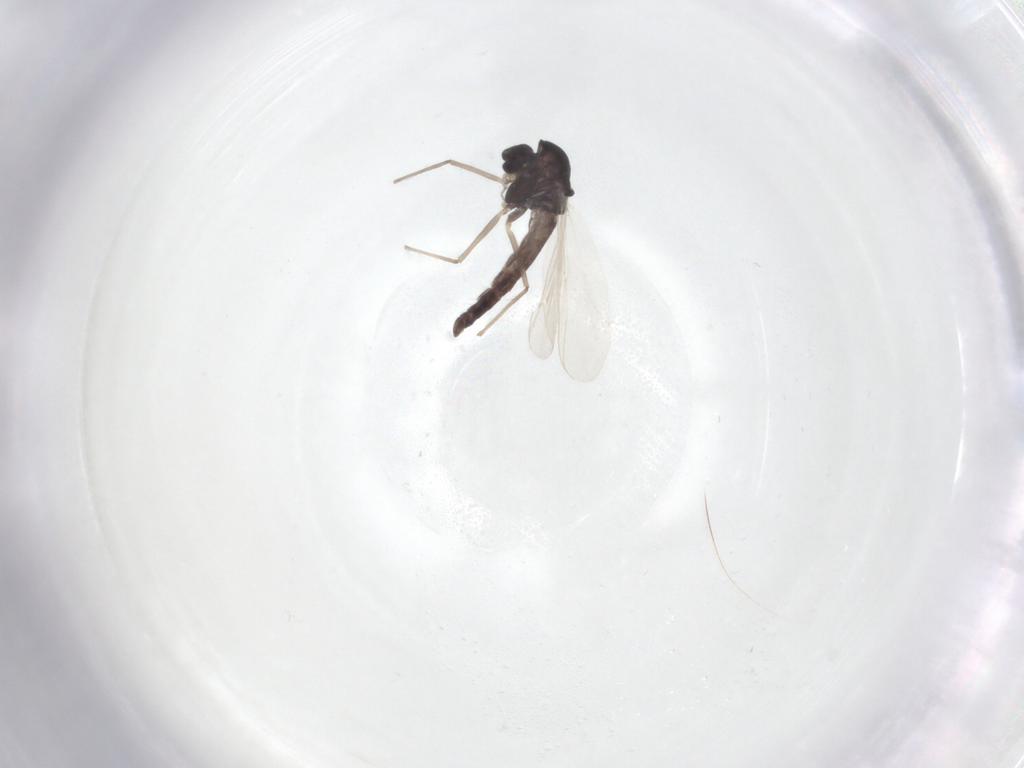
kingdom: Animalia
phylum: Arthropoda
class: Insecta
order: Diptera
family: Chironomidae
